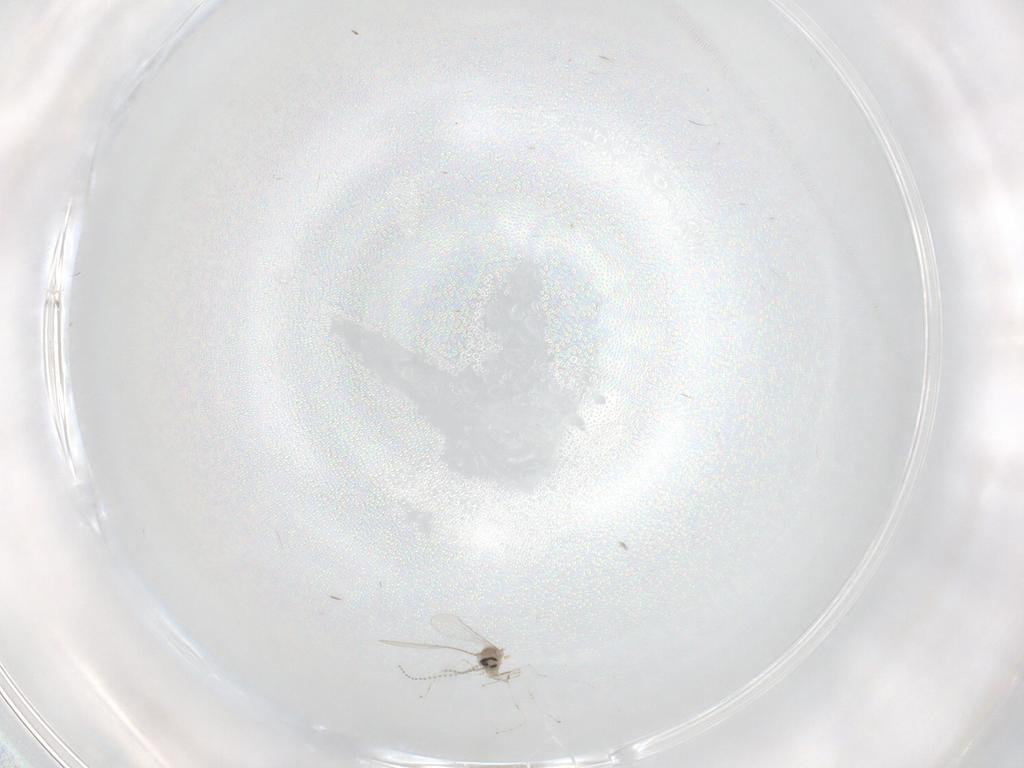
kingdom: Animalia
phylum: Arthropoda
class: Insecta
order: Diptera
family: Cecidomyiidae
